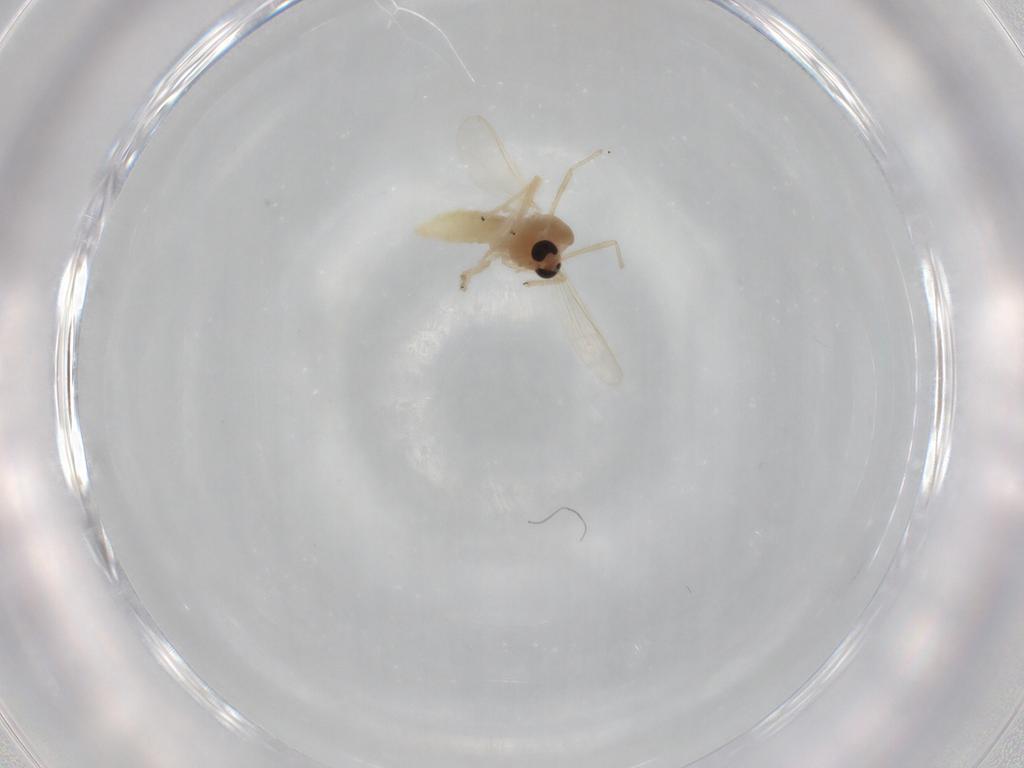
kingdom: Animalia
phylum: Arthropoda
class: Insecta
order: Diptera
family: Chironomidae
